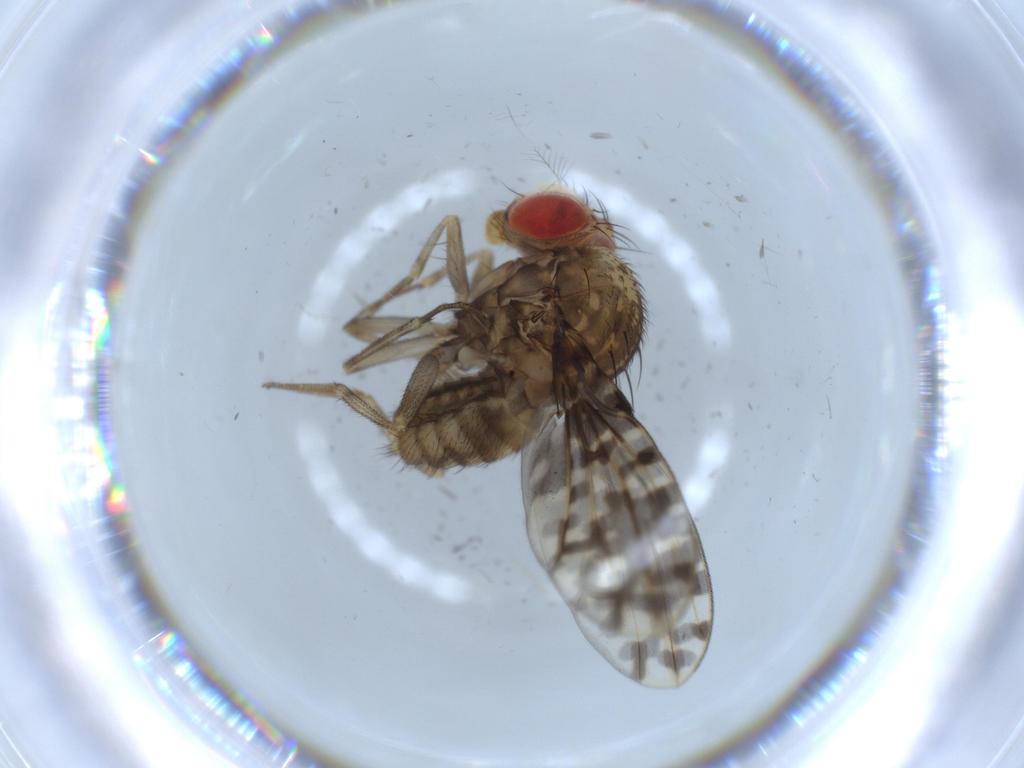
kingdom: Animalia
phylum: Arthropoda
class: Insecta
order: Diptera
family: Drosophilidae
